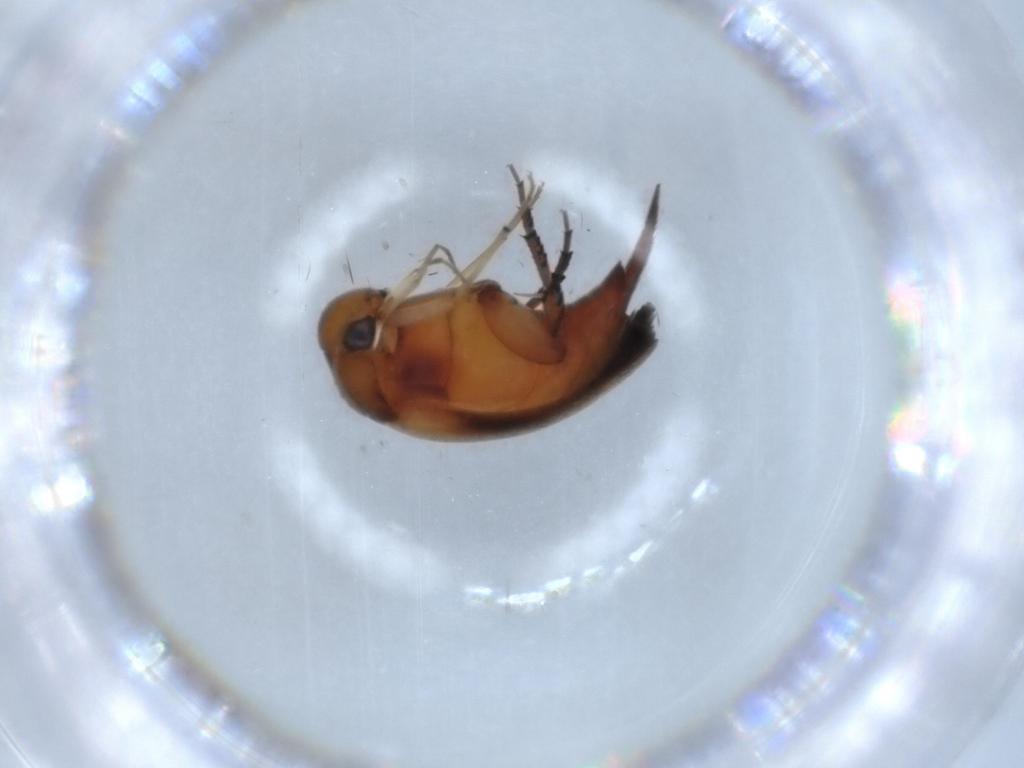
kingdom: Animalia
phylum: Arthropoda
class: Insecta
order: Coleoptera
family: Mordellidae
